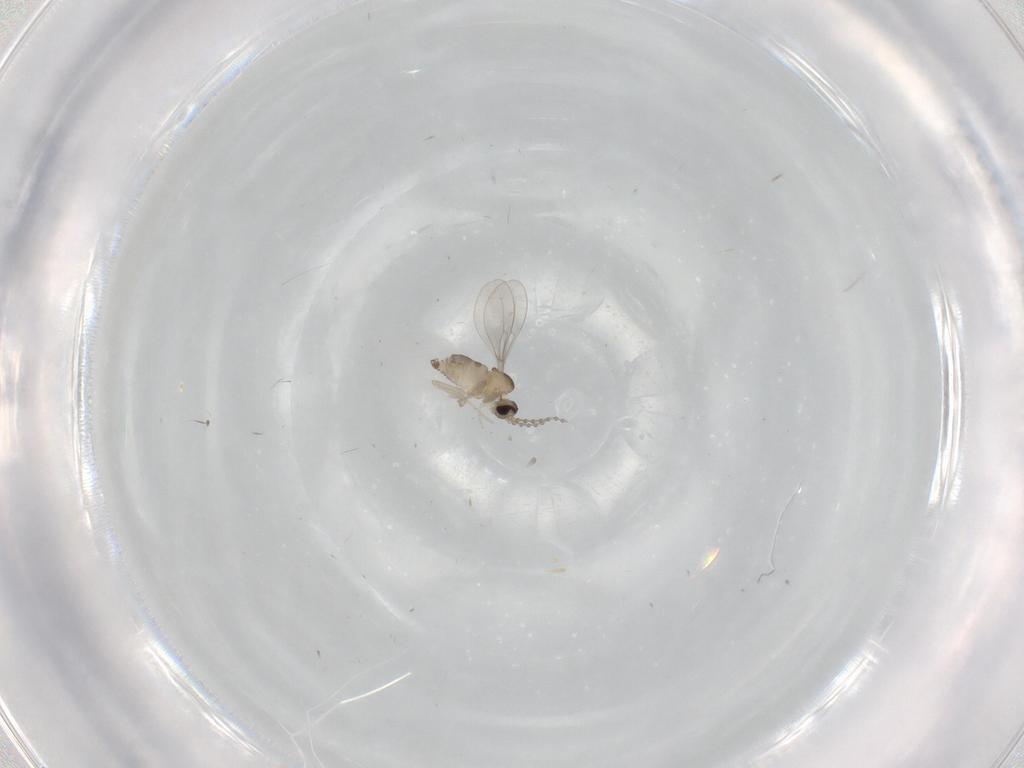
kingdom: Animalia
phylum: Arthropoda
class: Insecta
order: Diptera
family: Cecidomyiidae
